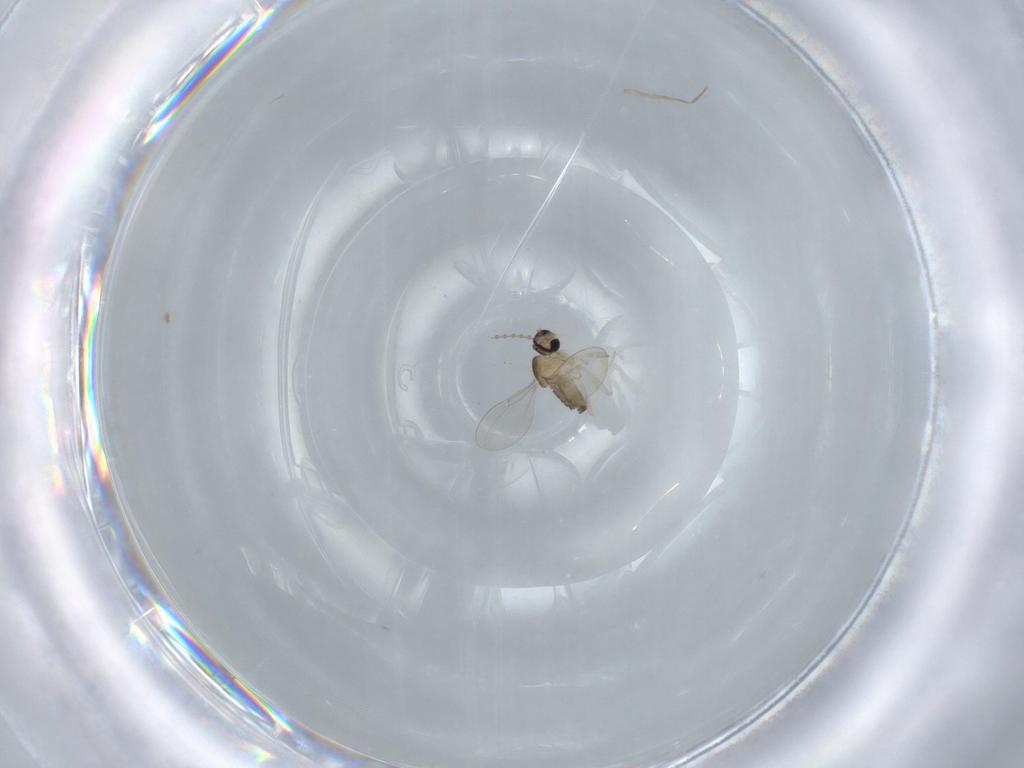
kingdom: Animalia
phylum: Arthropoda
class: Insecta
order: Diptera
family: Cecidomyiidae
